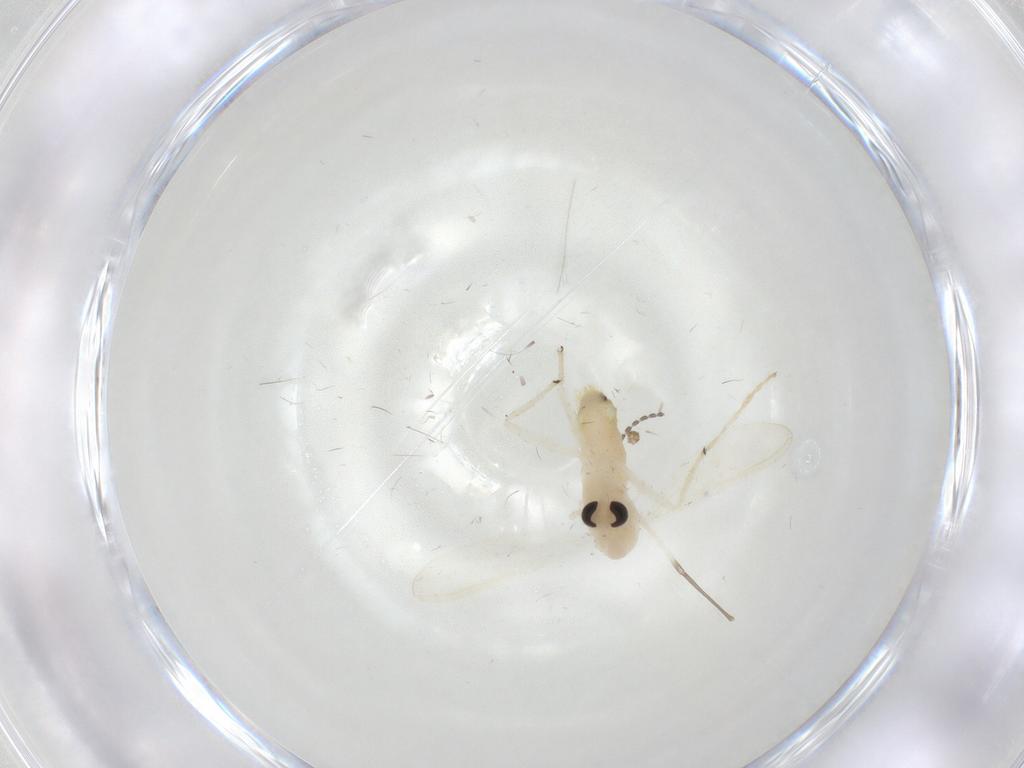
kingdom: Animalia
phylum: Arthropoda
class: Insecta
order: Diptera
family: Chironomidae
